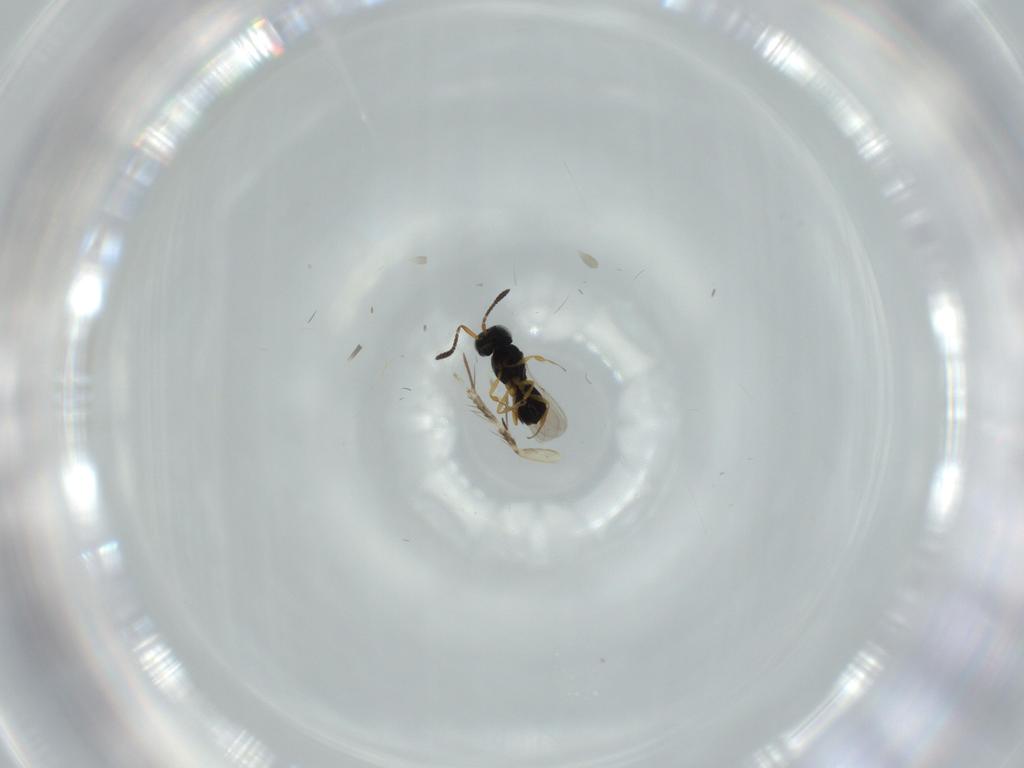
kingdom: Animalia
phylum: Arthropoda
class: Insecta
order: Hymenoptera
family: Scelionidae
